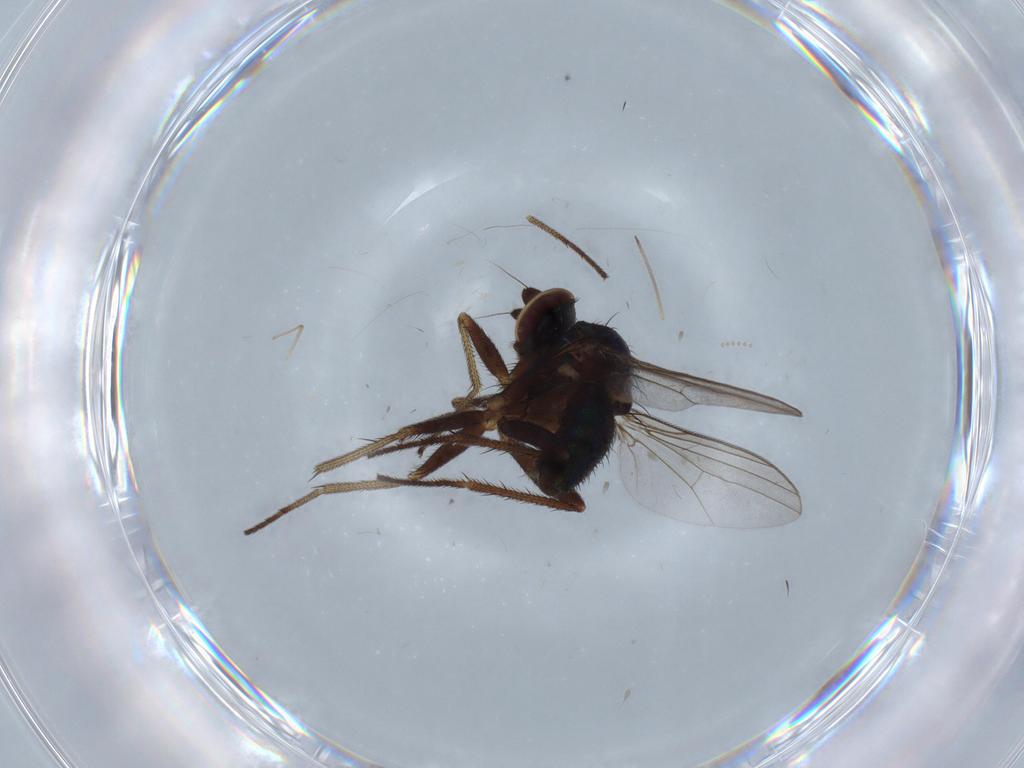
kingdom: Animalia
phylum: Arthropoda
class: Insecta
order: Diptera
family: Dolichopodidae
